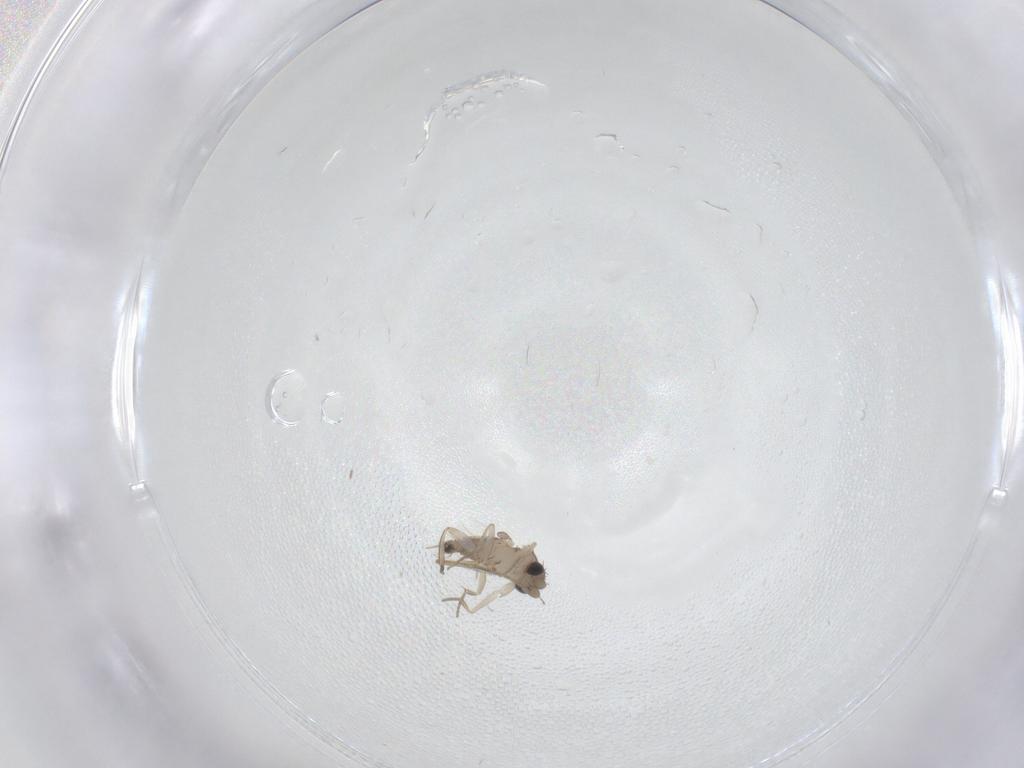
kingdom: Animalia
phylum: Arthropoda
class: Insecta
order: Diptera
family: Phoridae
